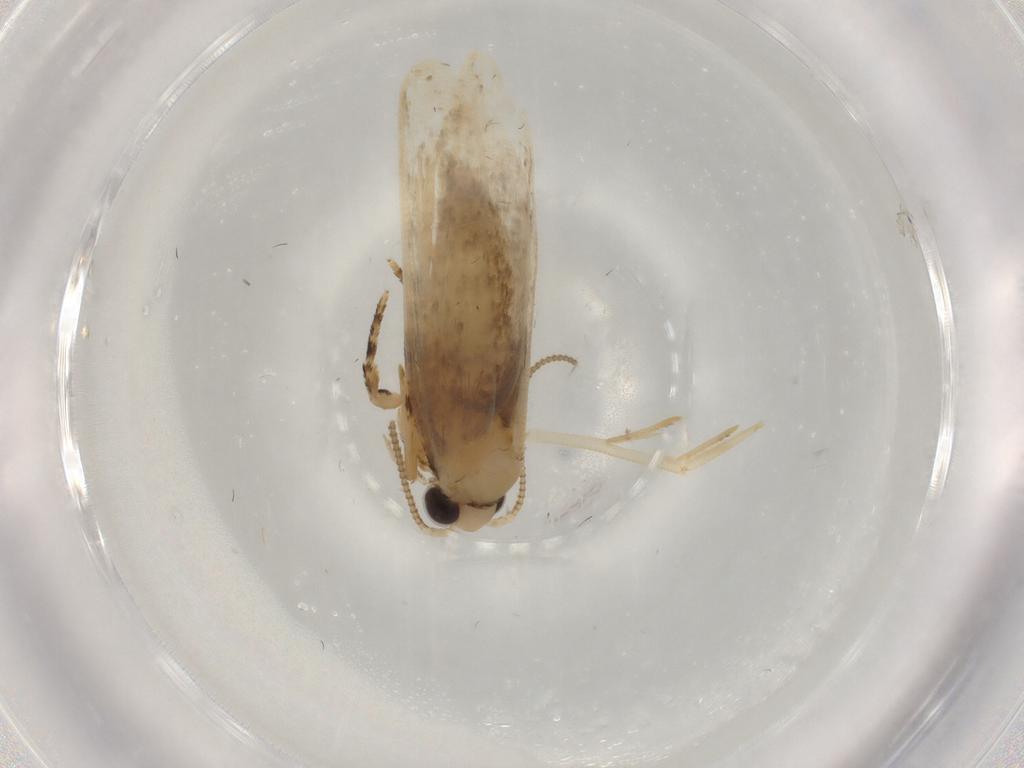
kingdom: Animalia
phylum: Arthropoda
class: Insecta
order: Lepidoptera
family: Tineidae
